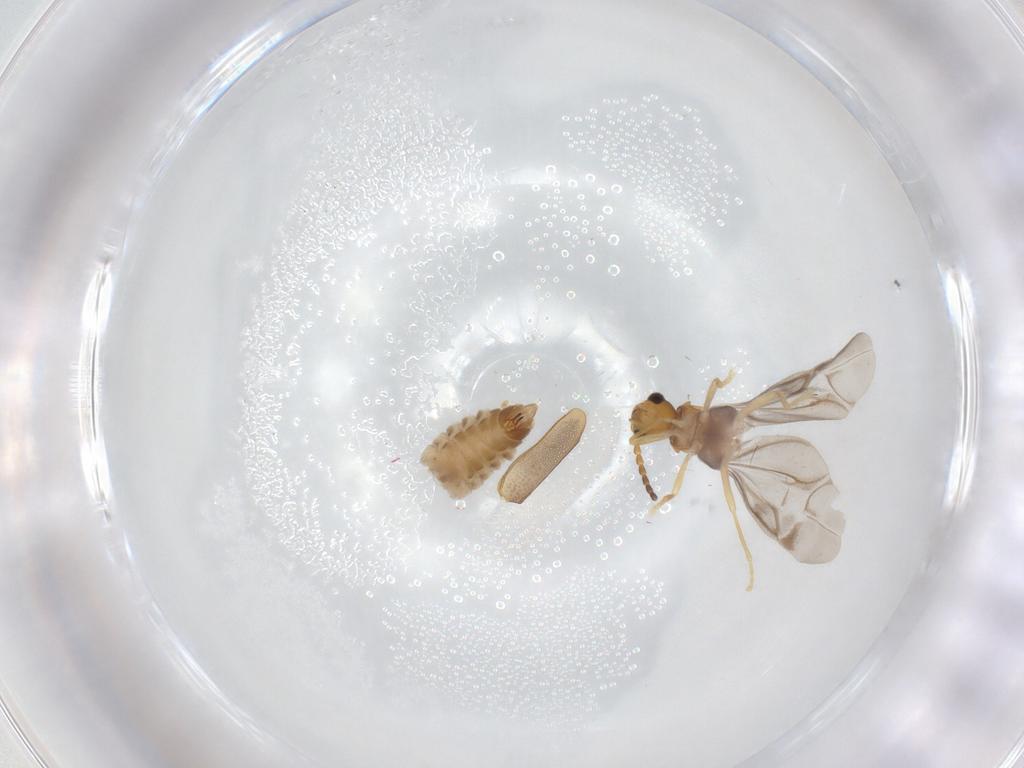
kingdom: Animalia
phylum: Arthropoda
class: Insecta
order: Coleoptera
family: Cantharidae
